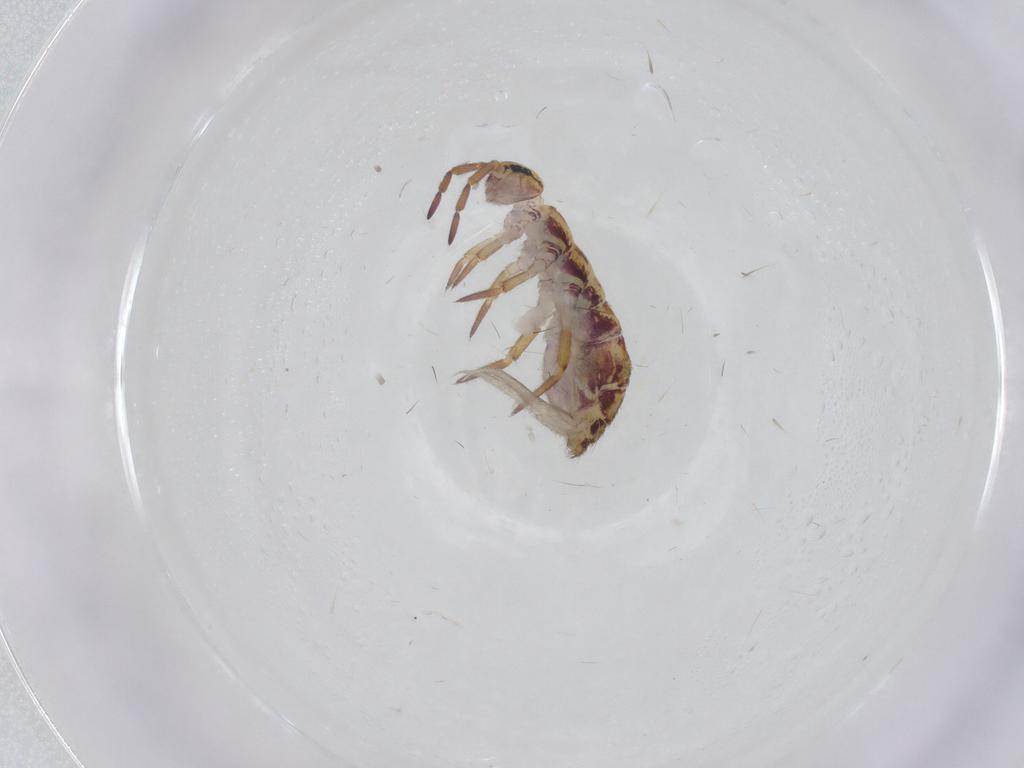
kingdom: Animalia
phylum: Arthropoda
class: Collembola
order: Entomobryomorpha
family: Isotomidae
